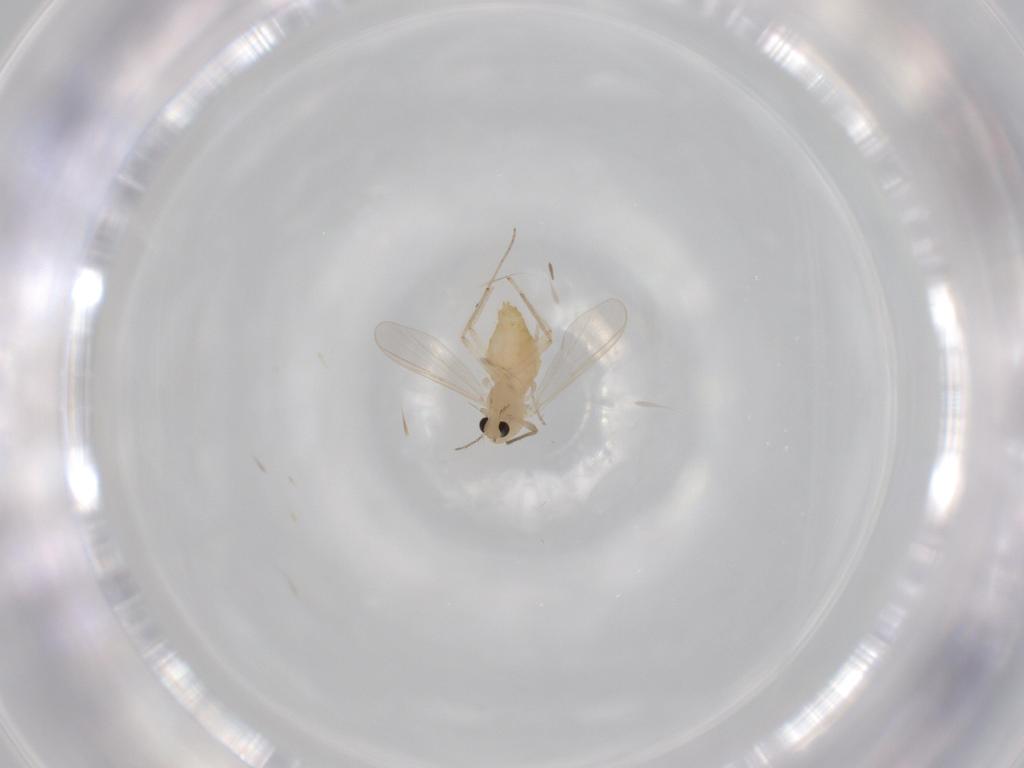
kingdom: Animalia
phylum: Arthropoda
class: Insecta
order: Diptera
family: Chironomidae
